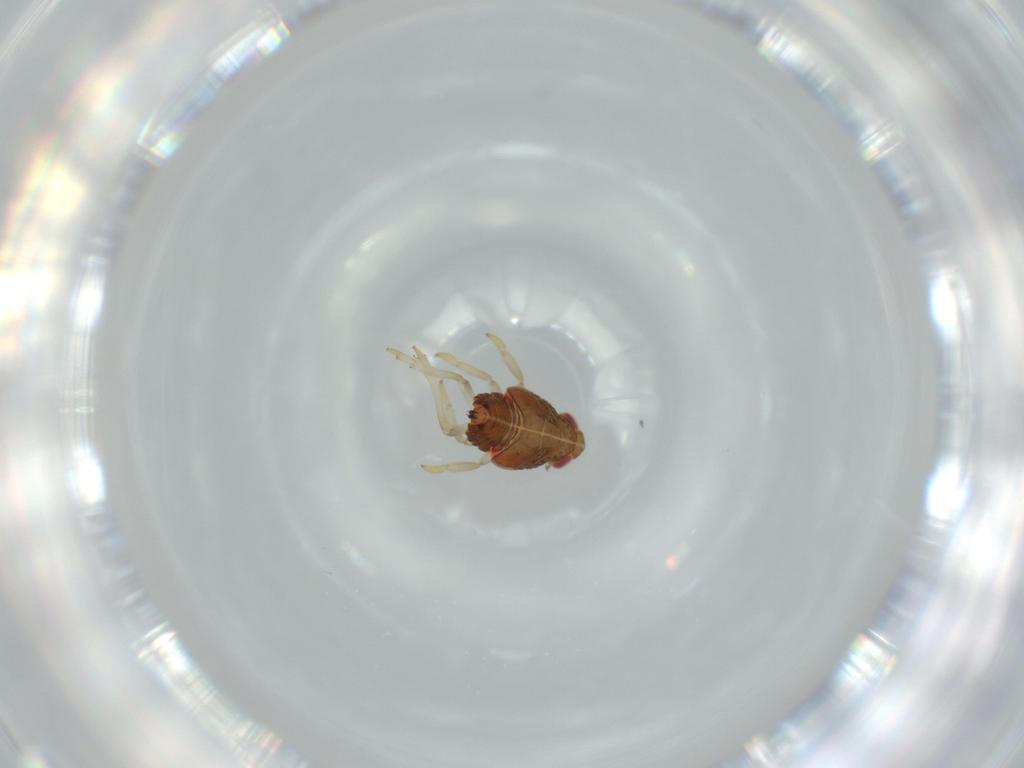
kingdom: Animalia
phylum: Arthropoda
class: Insecta
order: Hemiptera
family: Issidae
